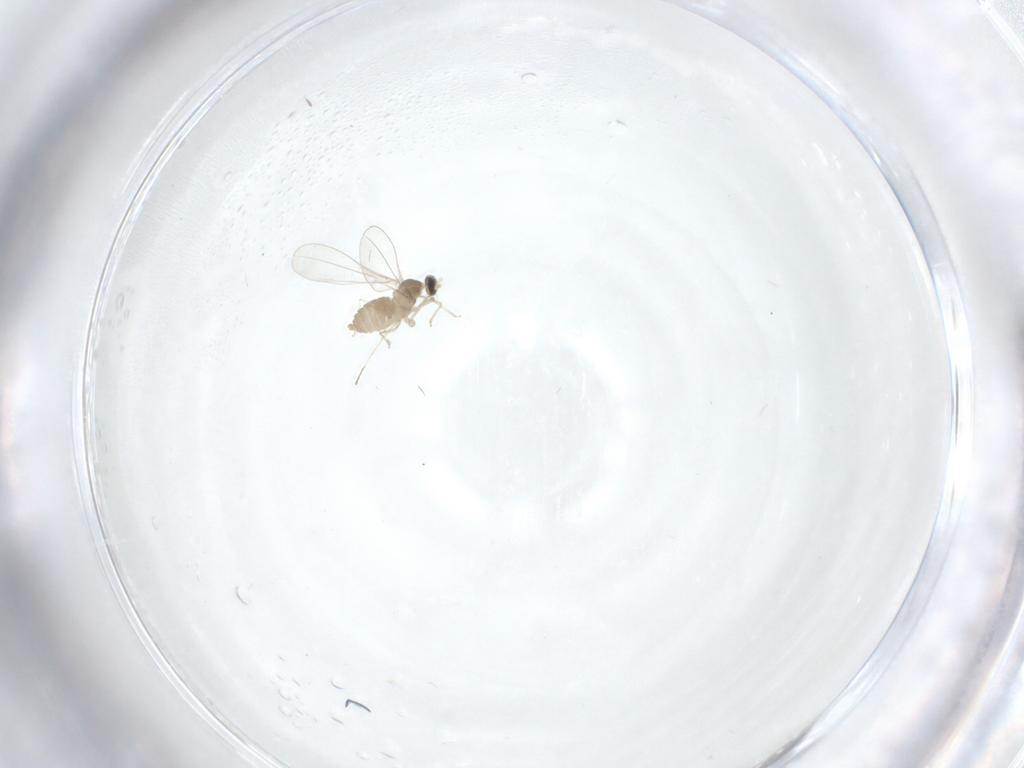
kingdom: Animalia
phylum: Arthropoda
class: Insecta
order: Diptera
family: Cecidomyiidae
